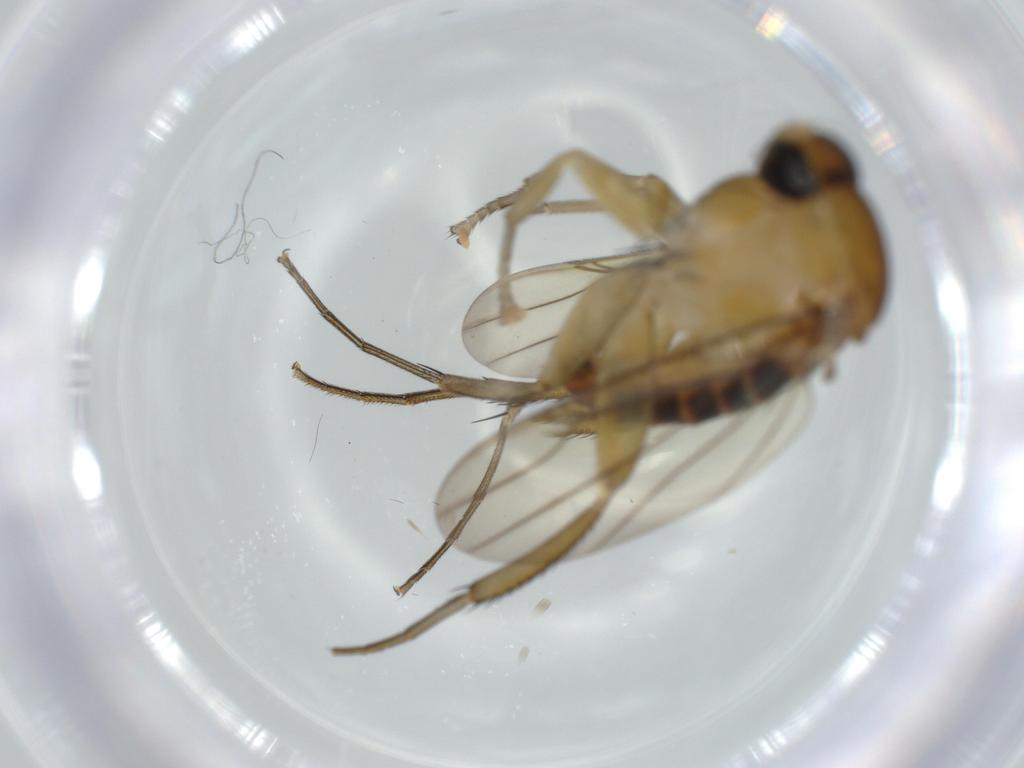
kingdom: Animalia
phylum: Arthropoda
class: Insecta
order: Diptera
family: Phoridae
